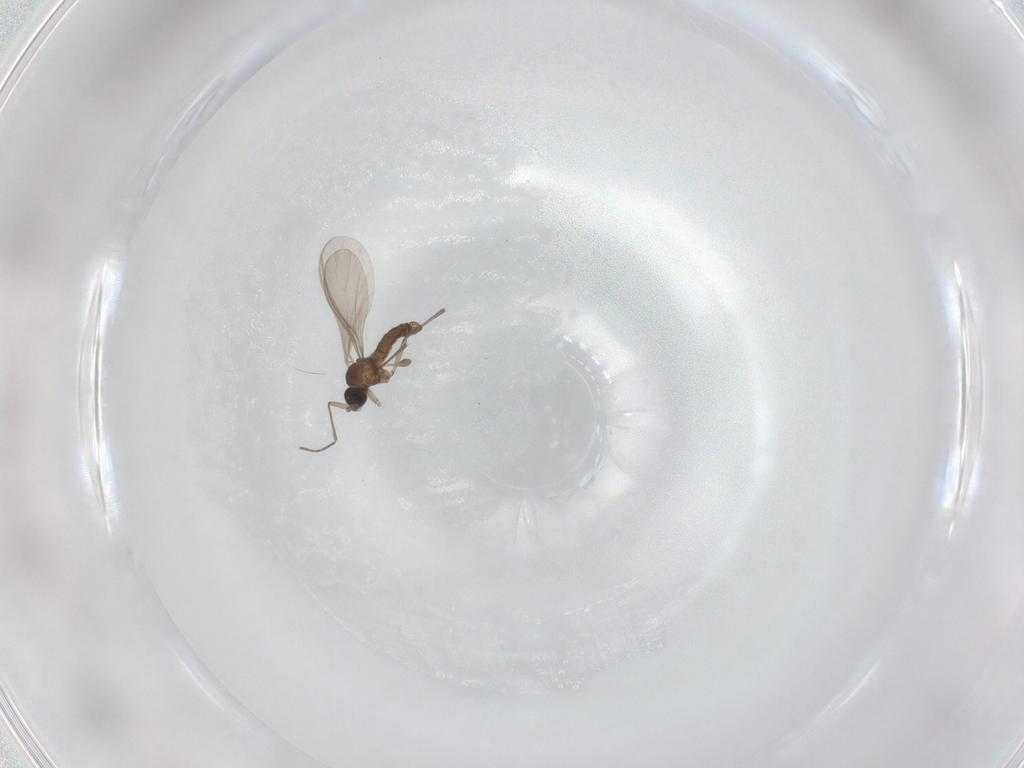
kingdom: Animalia
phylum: Arthropoda
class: Insecta
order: Diptera
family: Sciaridae
